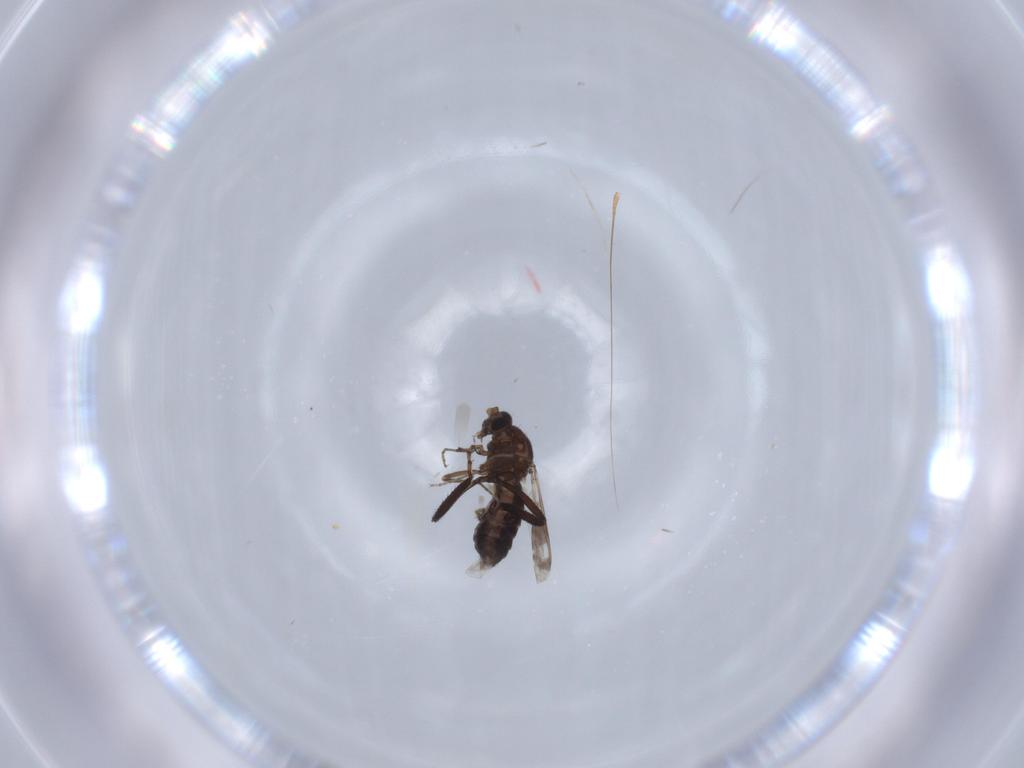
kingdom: Animalia
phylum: Arthropoda
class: Insecta
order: Diptera
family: Ceratopogonidae
